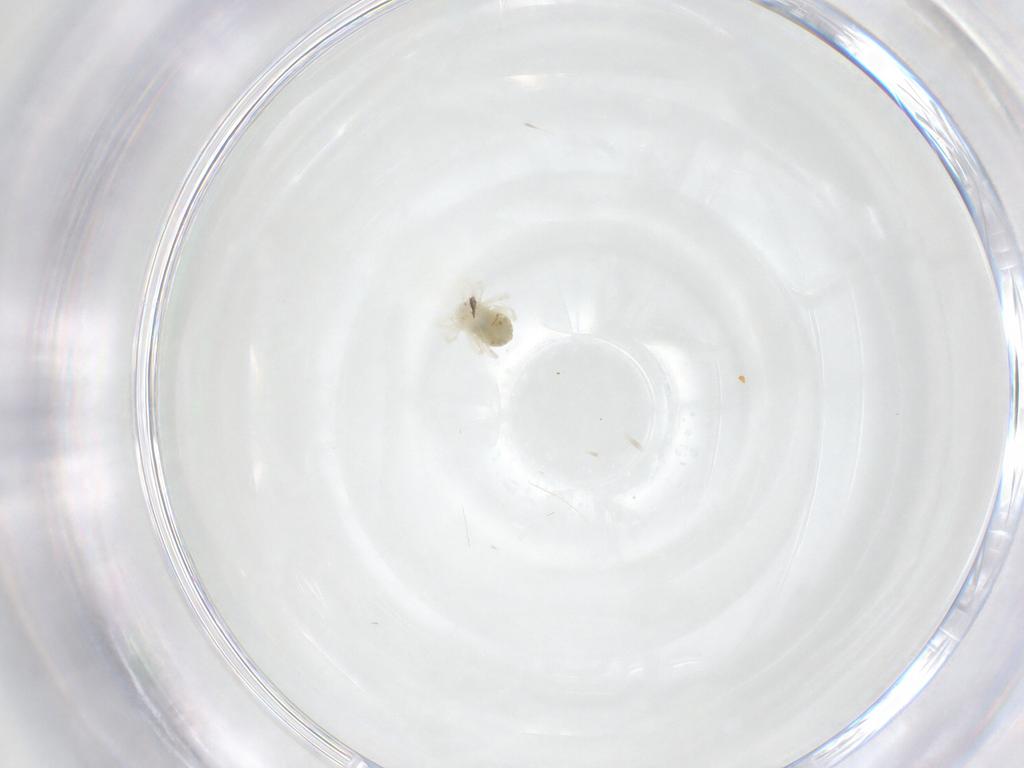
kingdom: Animalia
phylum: Arthropoda
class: Arachnida
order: Trombidiformes
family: Anystidae
